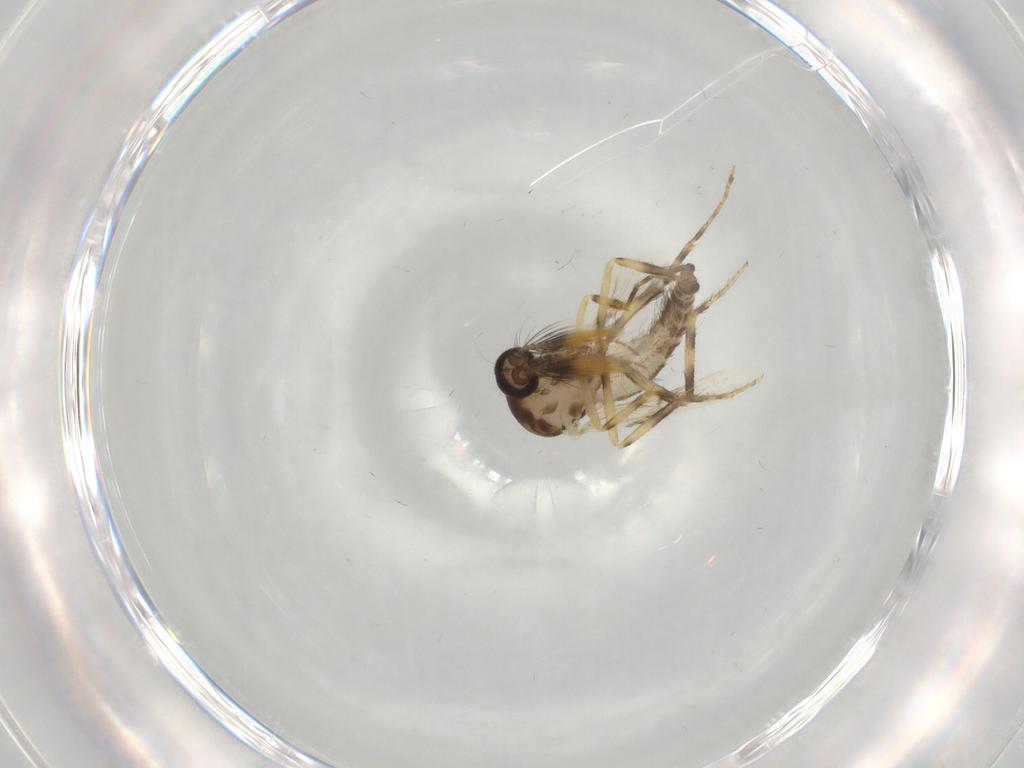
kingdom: Animalia
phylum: Arthropoda
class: Insecta
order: Diptera
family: Ceratopogonidae
